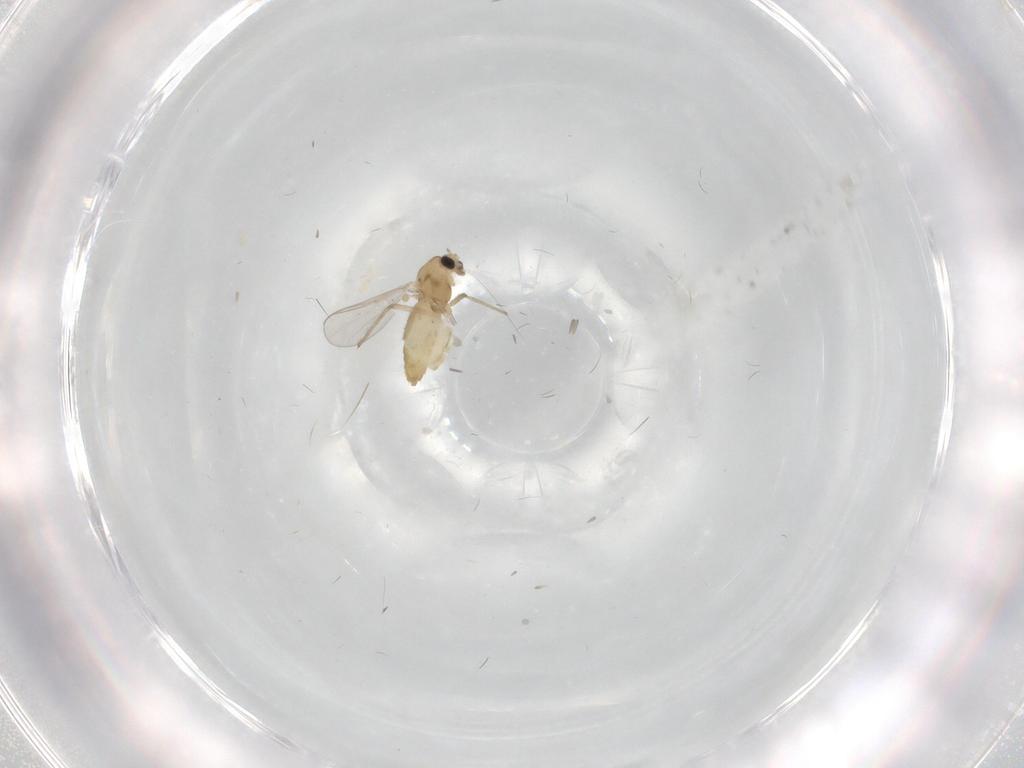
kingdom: Animalia
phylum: Arthropoda
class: Insecta
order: Diptera
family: Chironomidae
